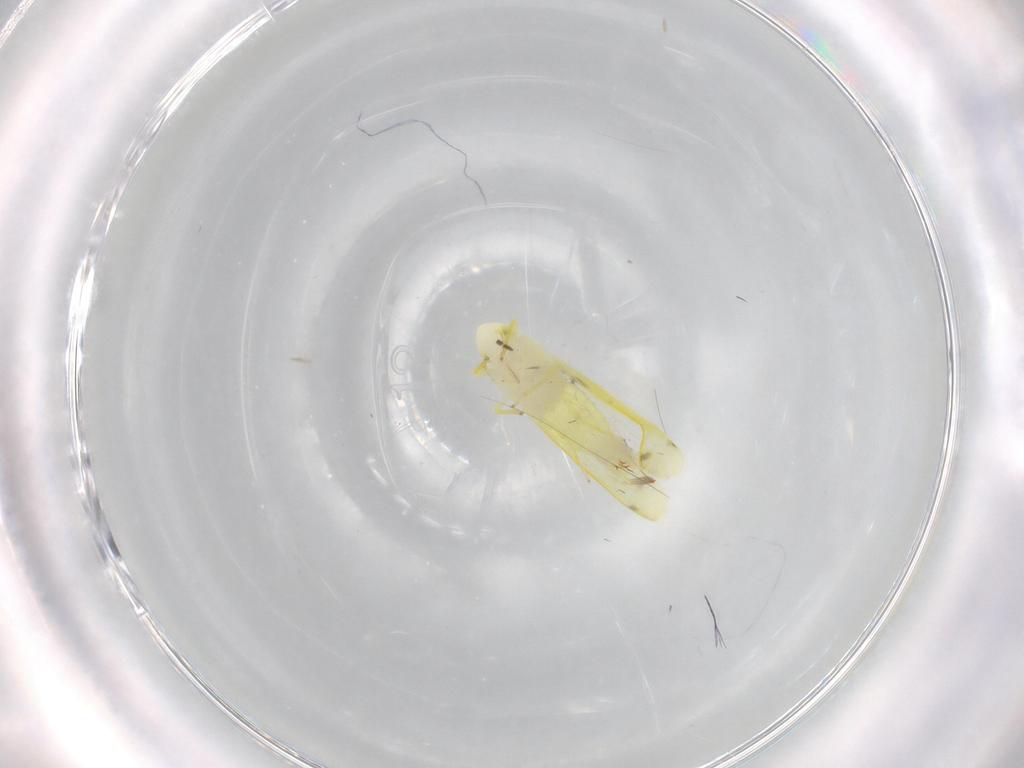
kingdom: Animalia
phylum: Arthropoda
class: Insecta
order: Hemiptera
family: Cicadellidae
